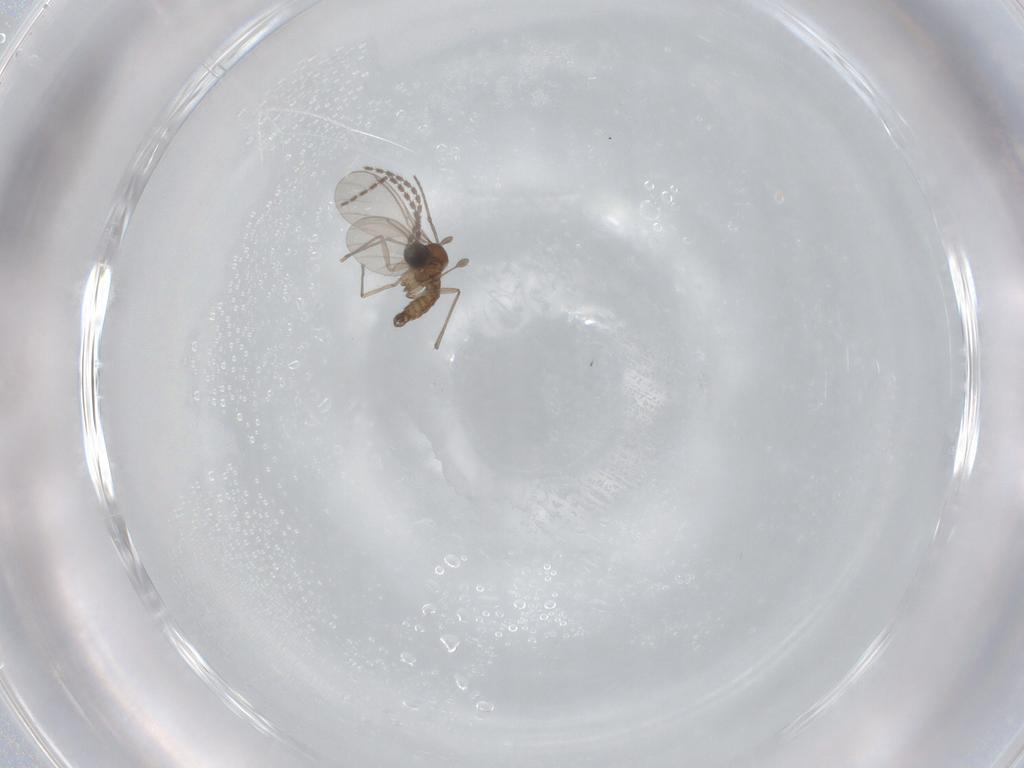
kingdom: Animalia
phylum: Arthropoda
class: Insecta
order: Diptera
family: Sciaridae
